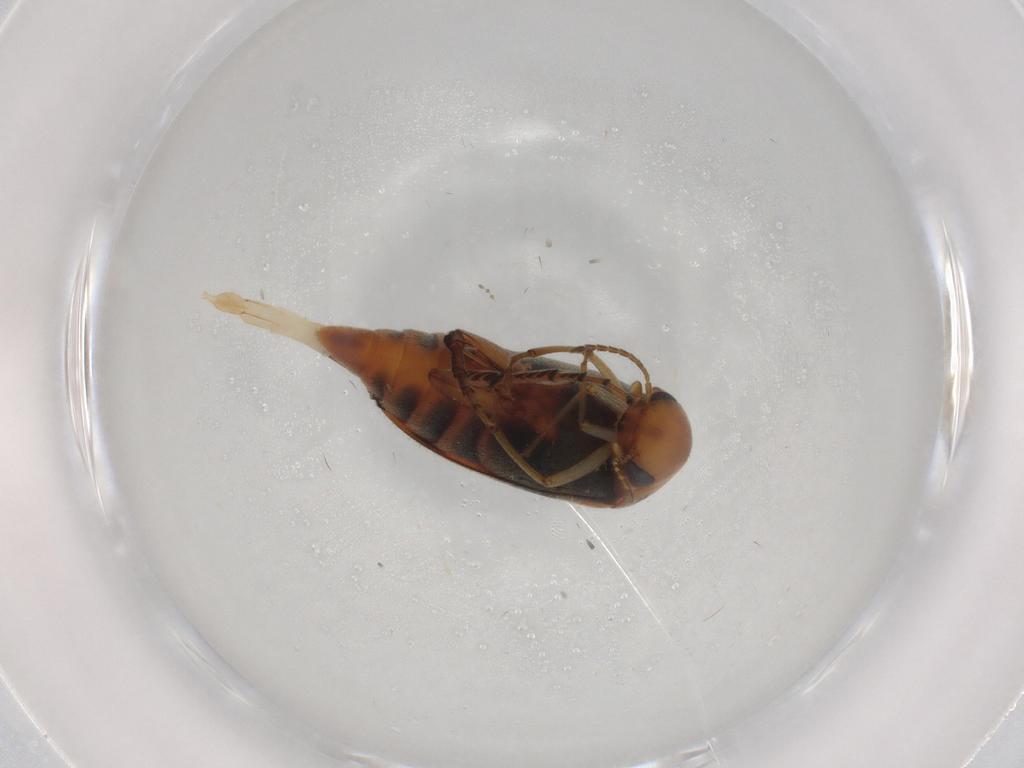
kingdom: Animalia
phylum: Arthropoda
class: Insecta
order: Coleoptera
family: Mordellidae
